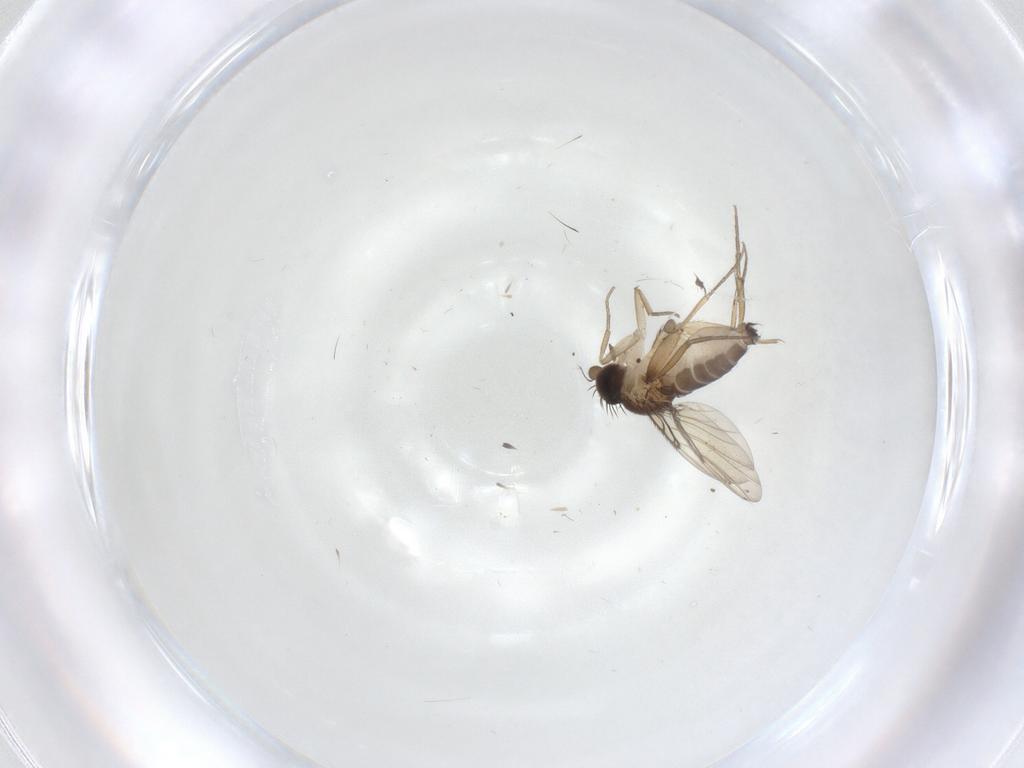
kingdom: Animalia
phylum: Arthropoda
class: Insecta
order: Diptera
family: Phoridae
